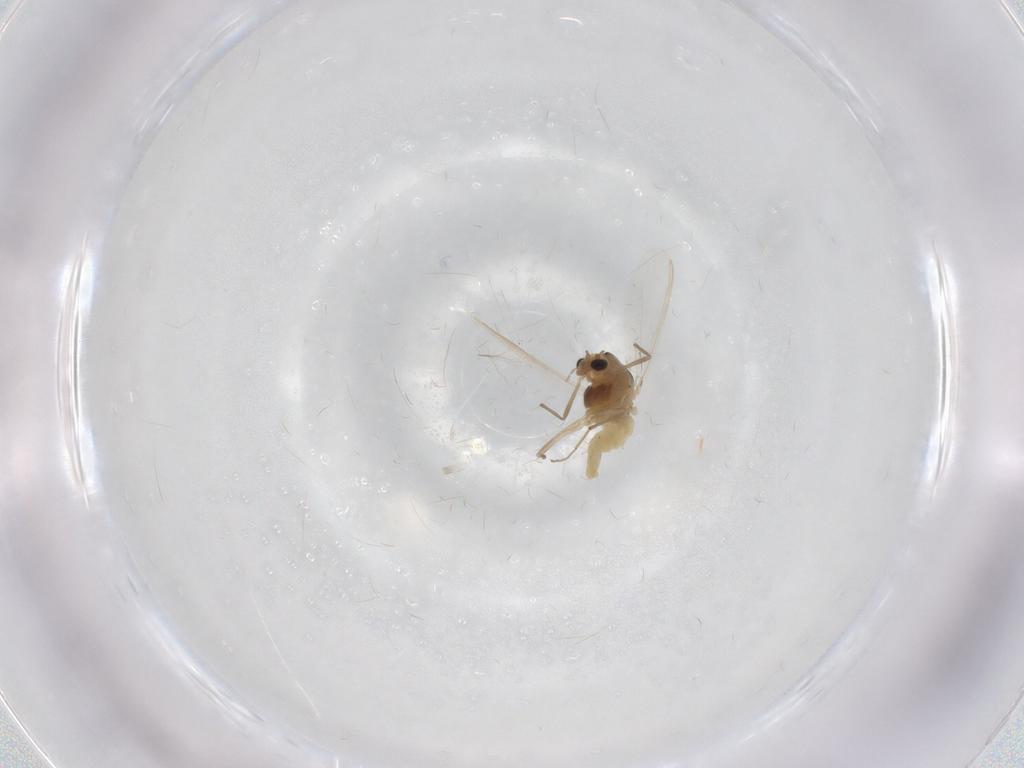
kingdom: Animalia
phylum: Arthropoda
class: Insecta
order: Diptera
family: Chironomidae
